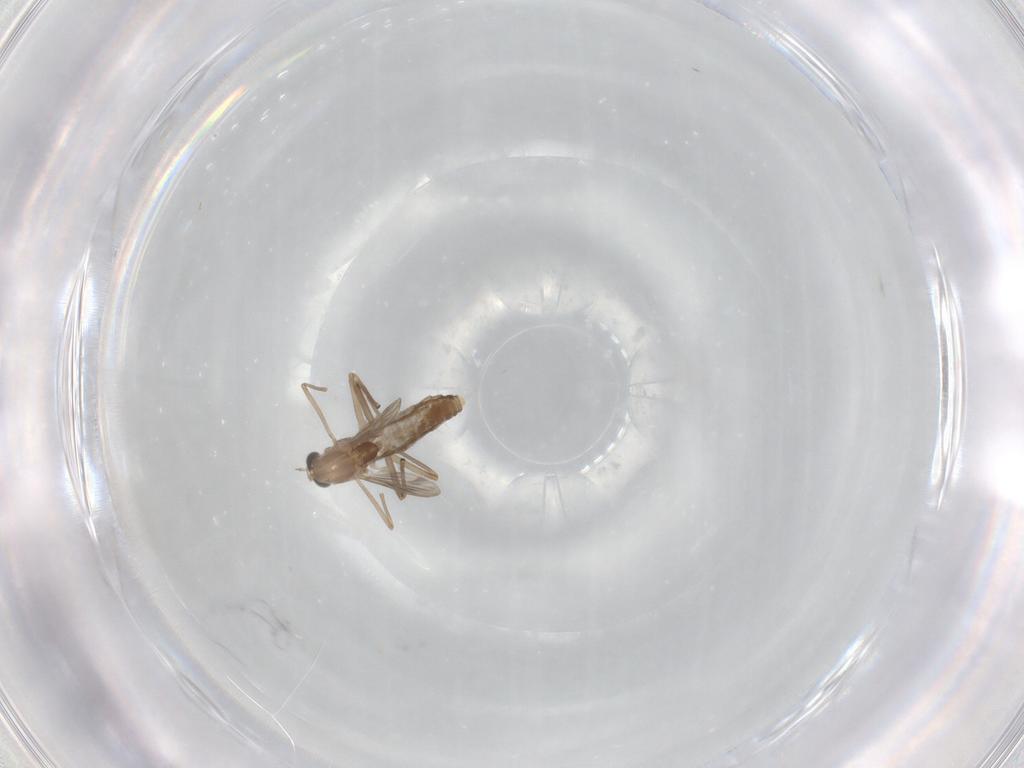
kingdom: Animalia
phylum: Arthropoda
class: Insecta
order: Diptera
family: Chironomidae
